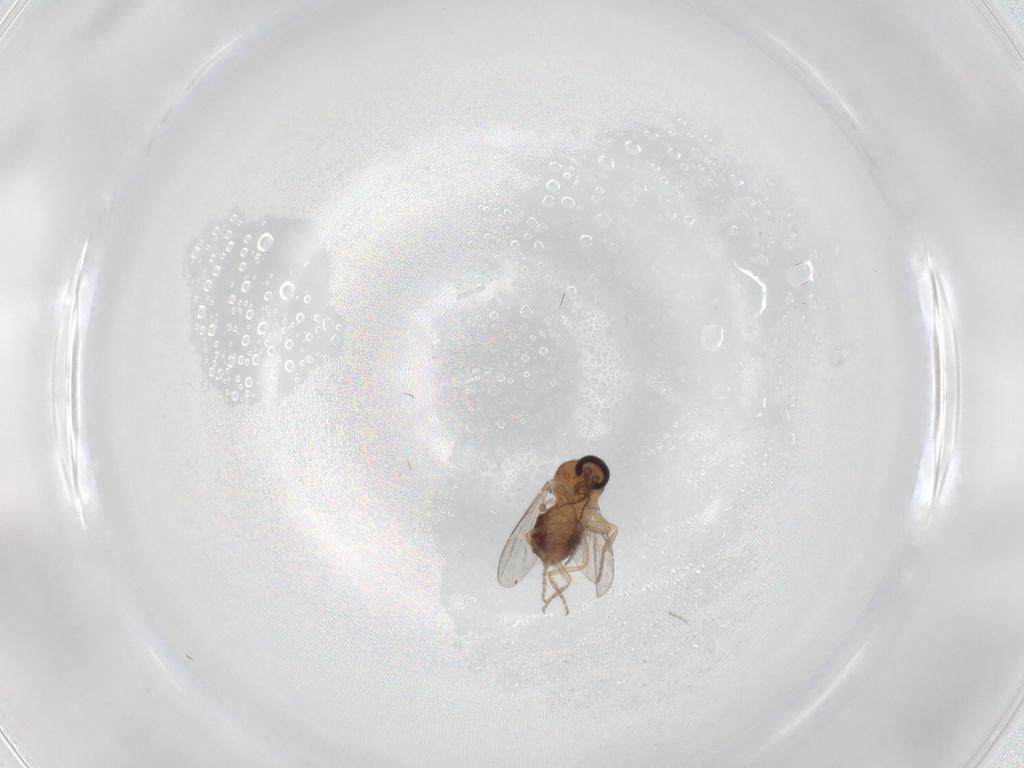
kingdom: Animalia
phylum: Arthropoda
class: Insecta
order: Diptera
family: Ceratopogonidae
